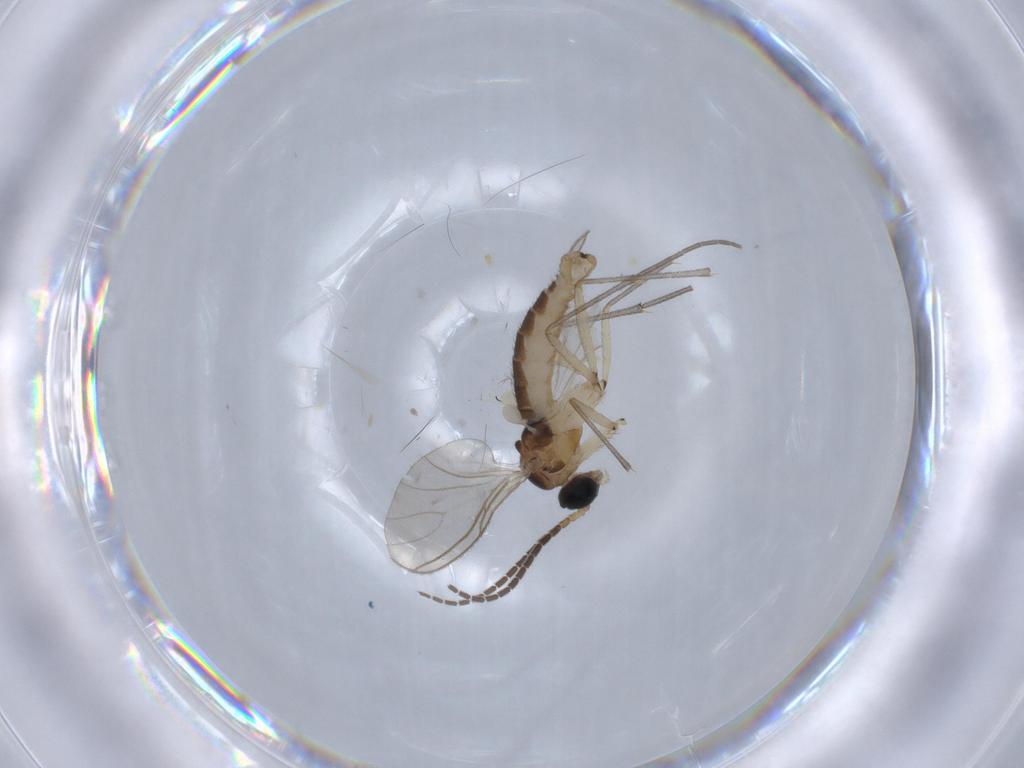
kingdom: Animalia
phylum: Arthropoda
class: Insecta
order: Diptera
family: Sciaridae
